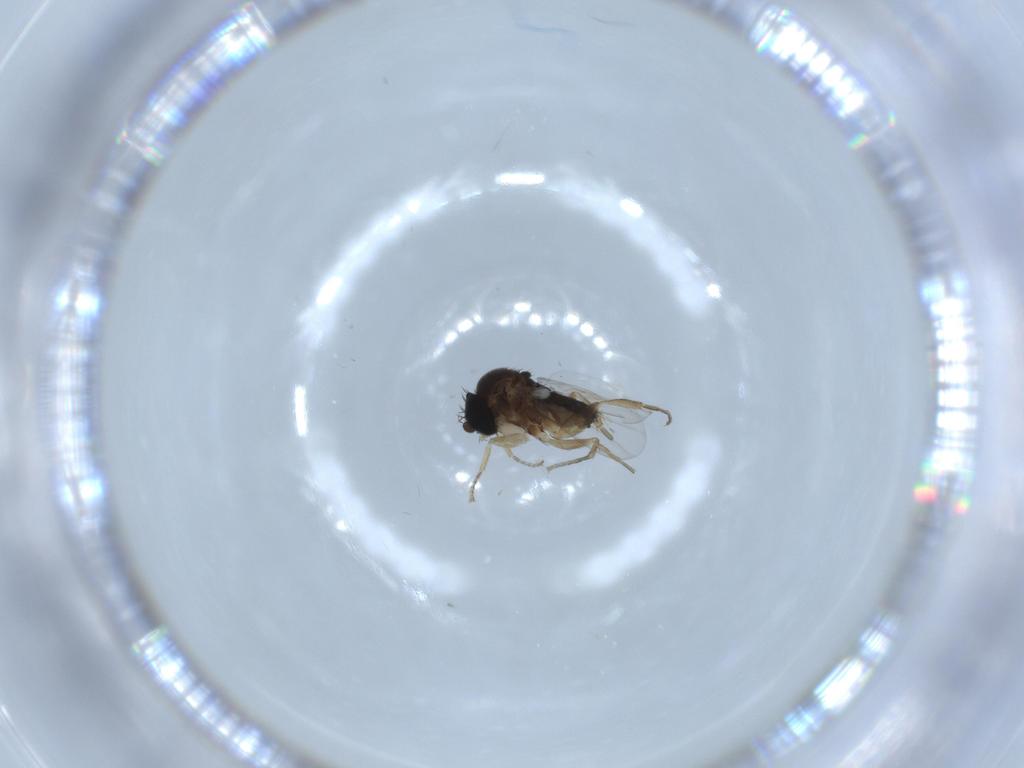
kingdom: Animalia
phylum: Arthropoda
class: Insecta
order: Diptera
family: Phoridae
